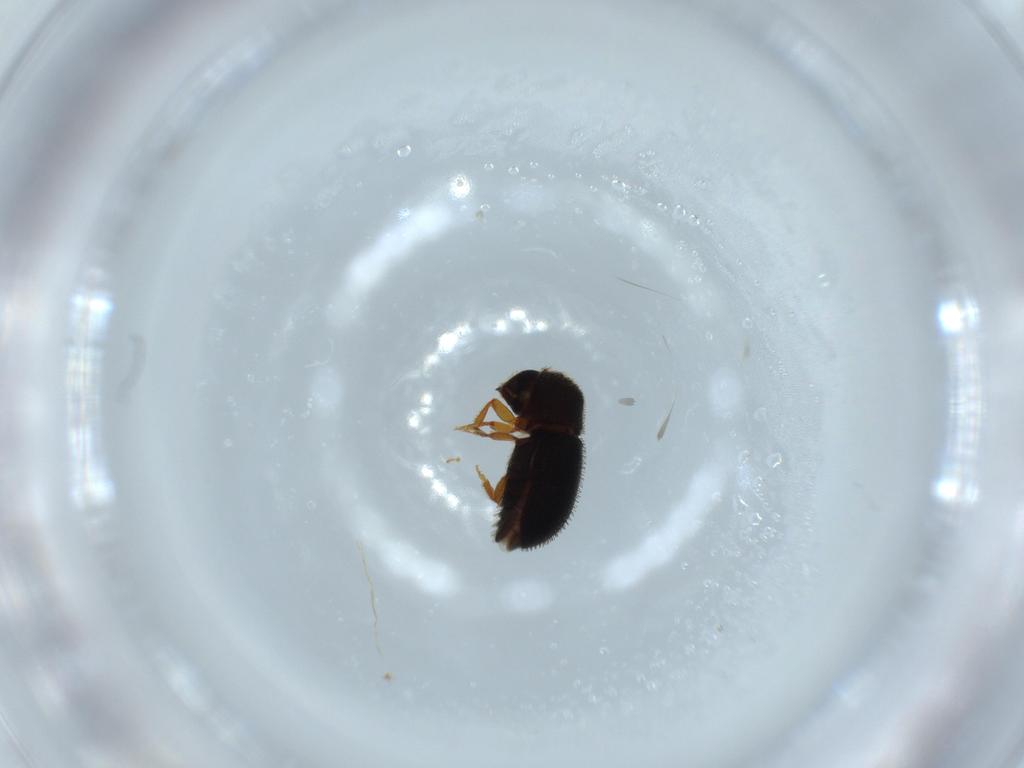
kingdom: Animalia
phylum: Arthropoda
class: Insecta
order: Coleoptera
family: Curculionidae
